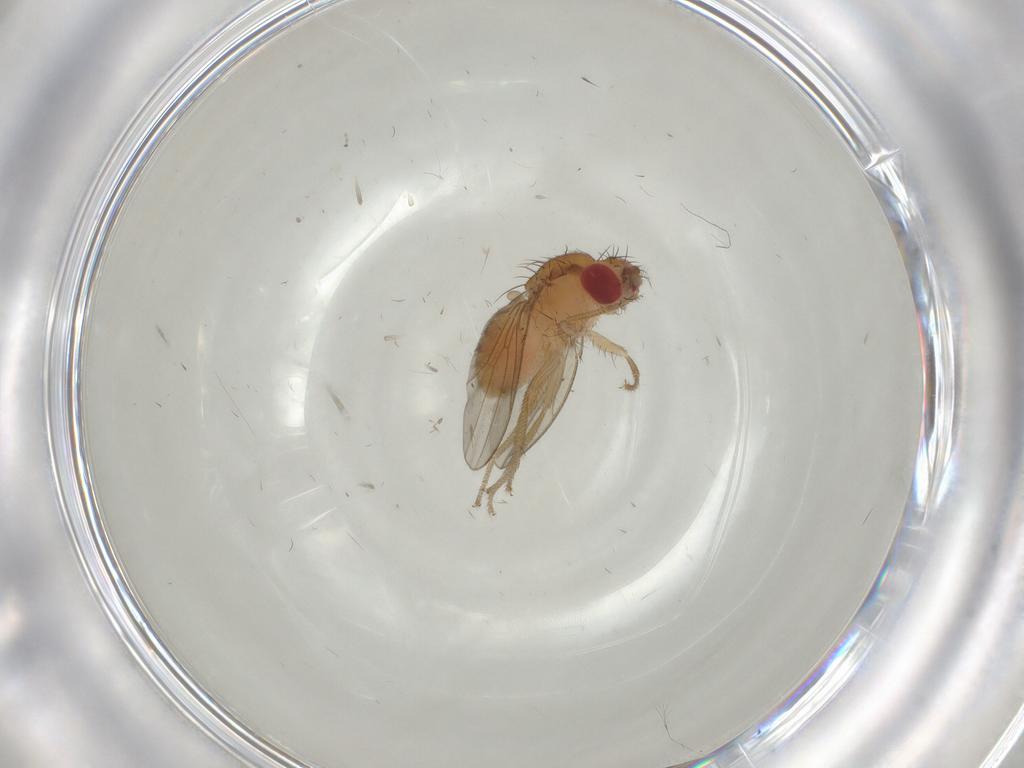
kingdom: Animalia
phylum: Arthropoda
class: Insecta
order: Diptera
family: Drosophilidae
